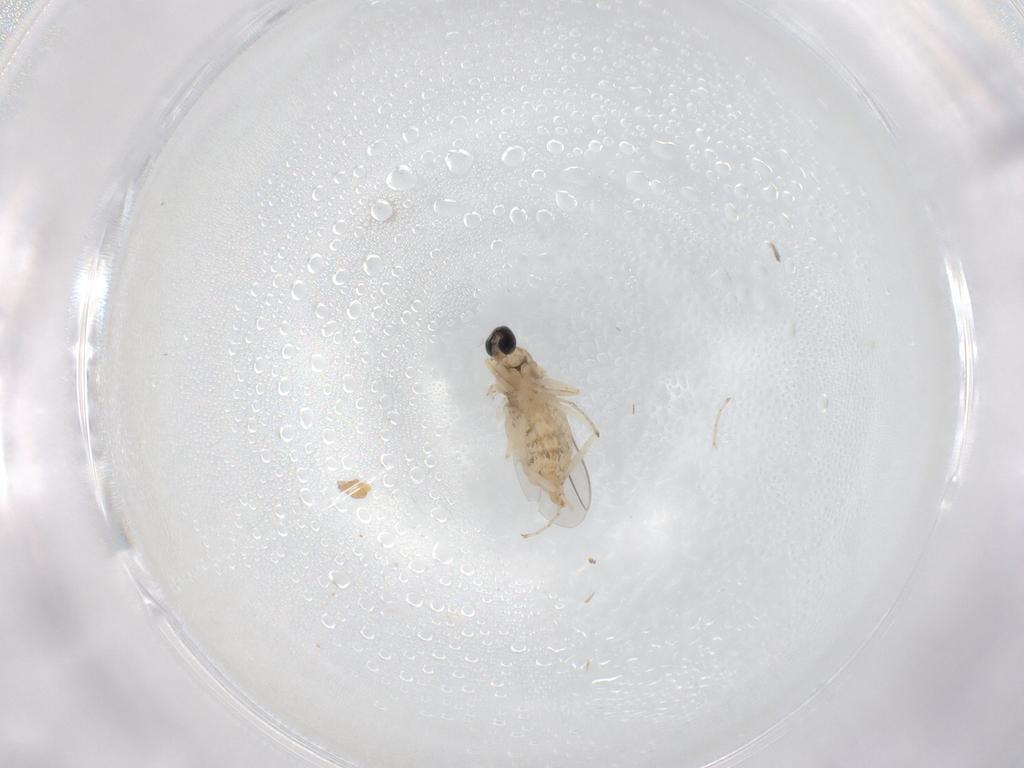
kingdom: Animalia
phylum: Arthropoda
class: Insecta
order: Diptera
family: Cecidomyiidae
